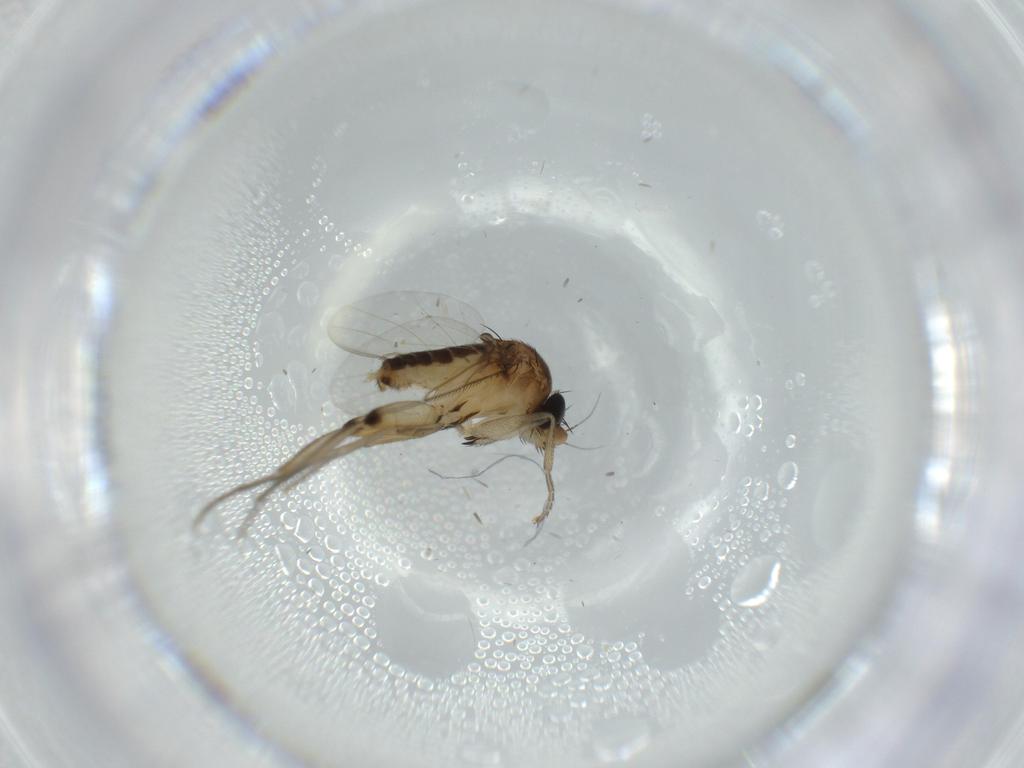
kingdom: Animalia
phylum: Arthropoda
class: Insecta
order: Diptera
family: Phoridae
